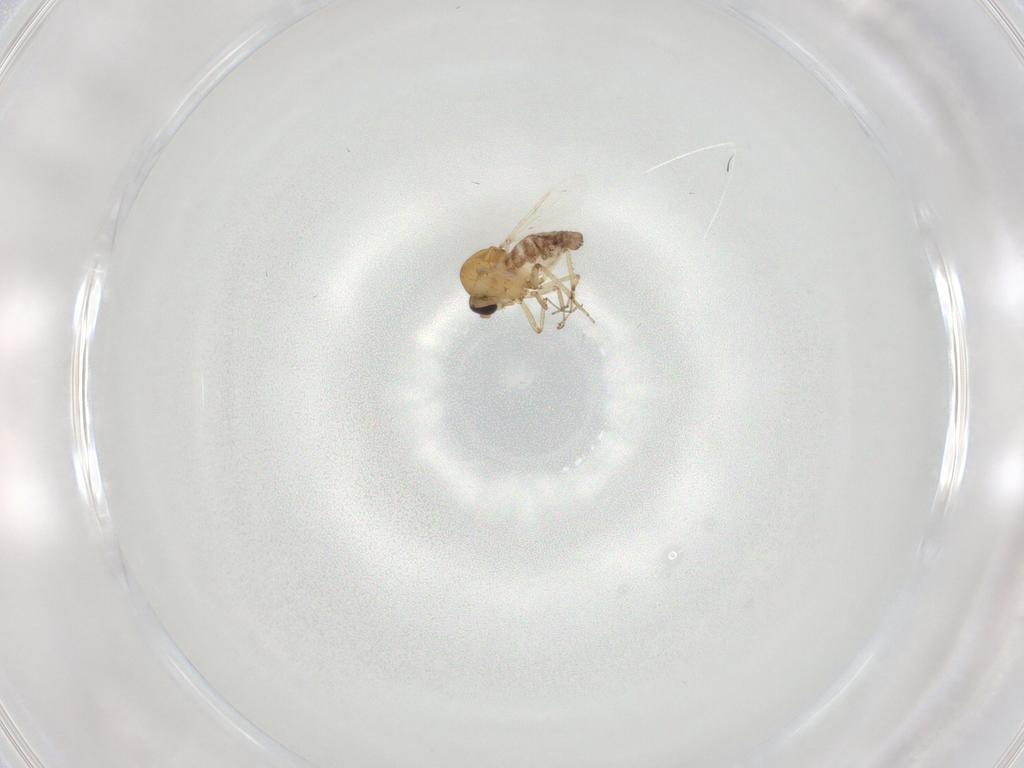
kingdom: Animalia
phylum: Arthropoda
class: Insecta
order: Diptera
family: Ceratopogonidae
